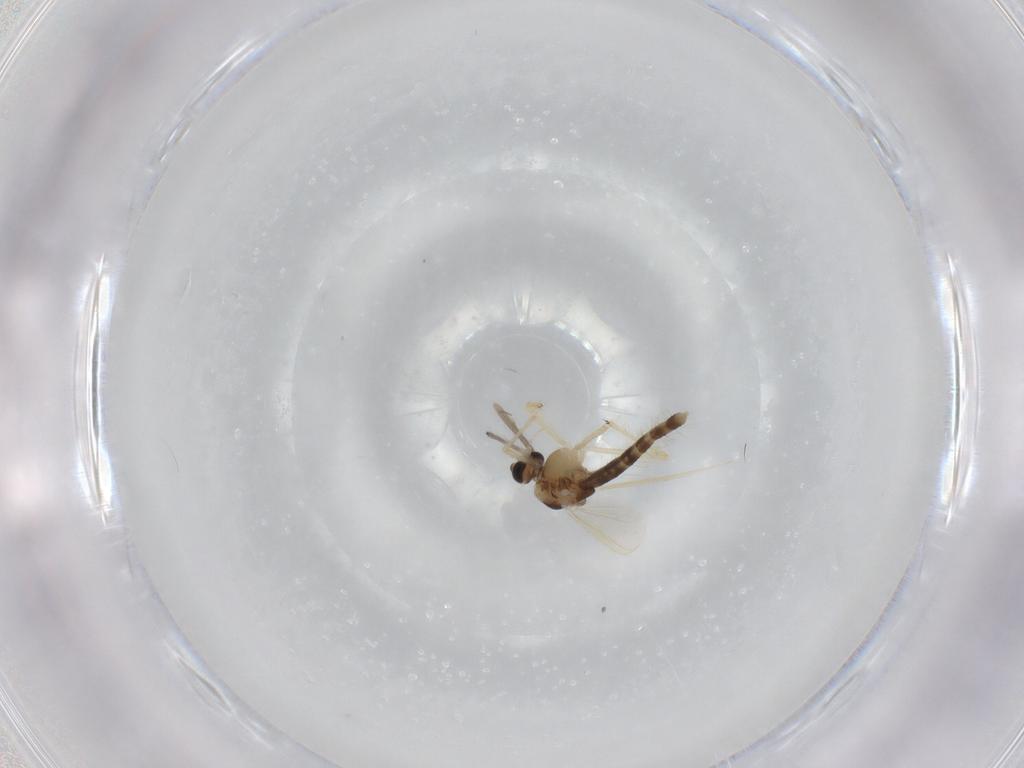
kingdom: Animalia
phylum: Arthropoda
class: Insecta
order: Diptera
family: Chironomidae
